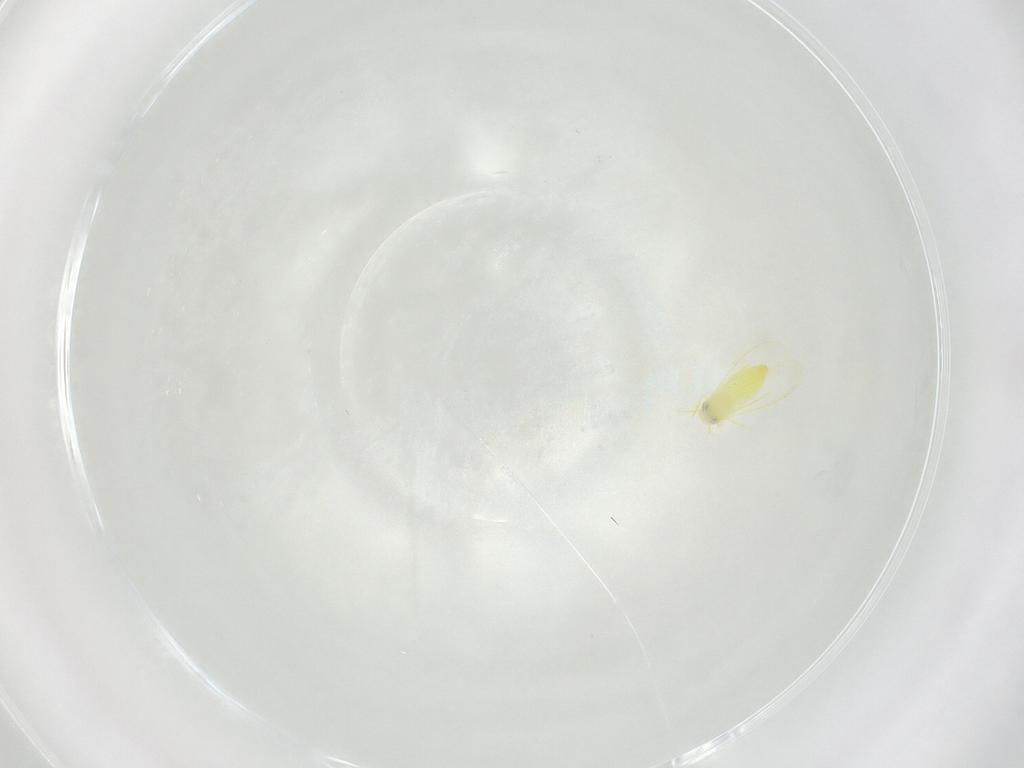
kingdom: Animalia
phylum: Arthropoda
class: Insecta
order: Hemiptera
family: Aleyrodidae
